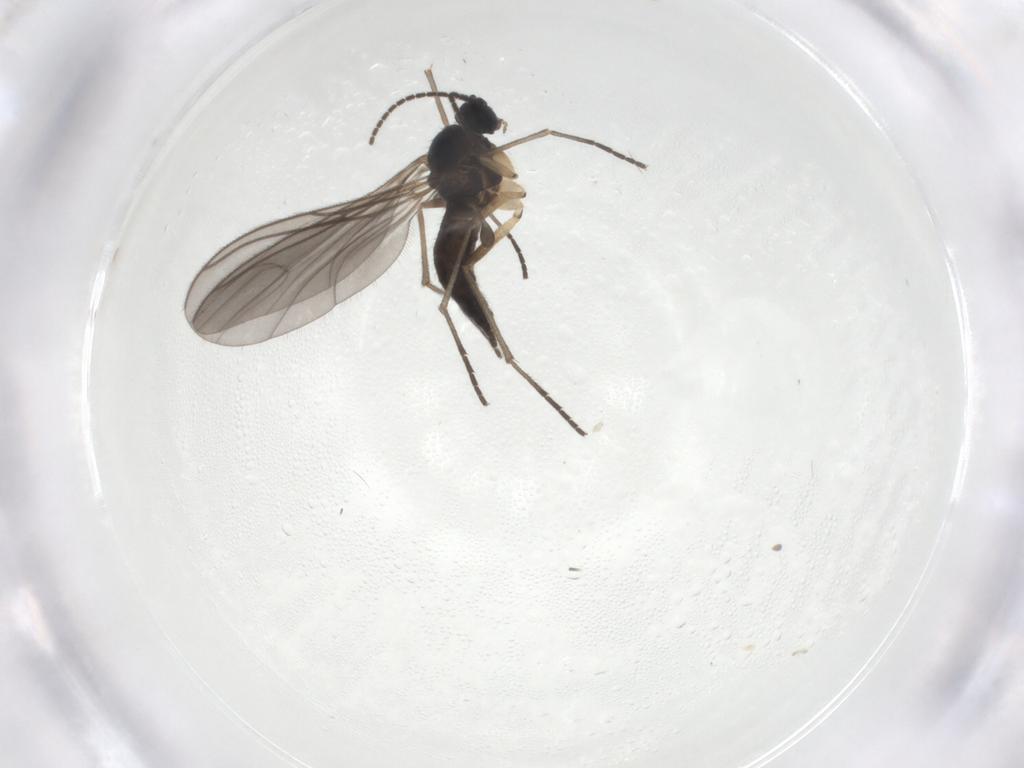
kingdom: Animalia
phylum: Arthropoda
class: Insecta
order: Diptera
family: Sciaridae
